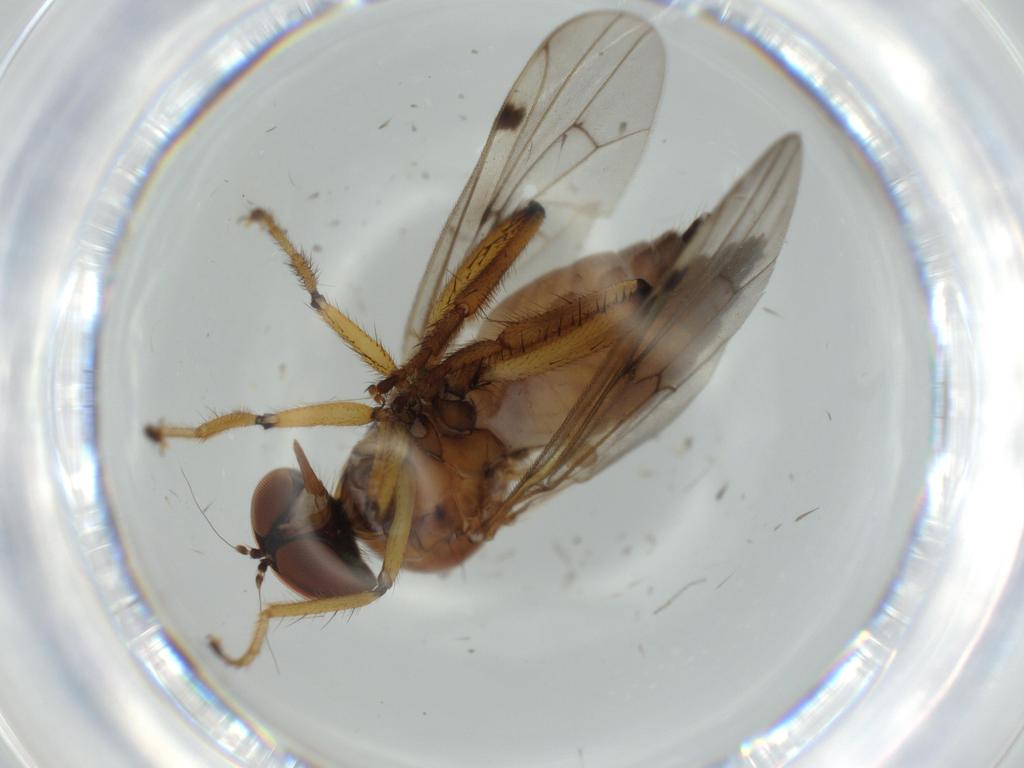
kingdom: Animalia
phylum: Arthropoda
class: Insecta
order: Diptera
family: Hybotidae
